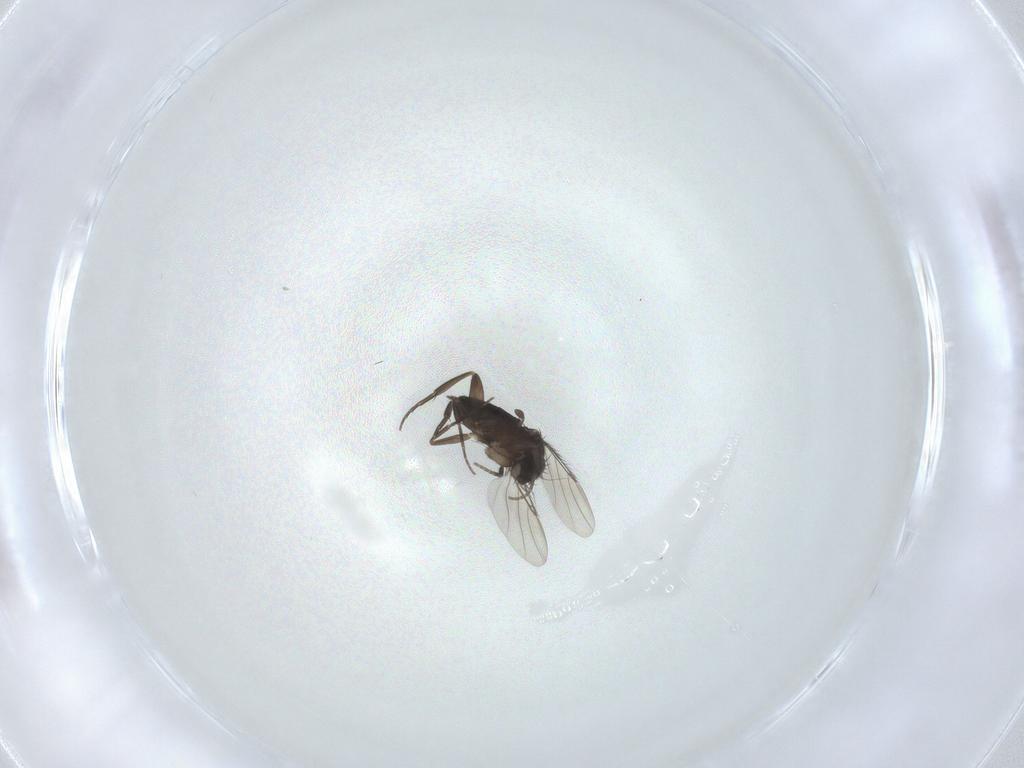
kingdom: Animalia
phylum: Arthropoda
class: Insecta
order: Diptera
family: Phoridae
